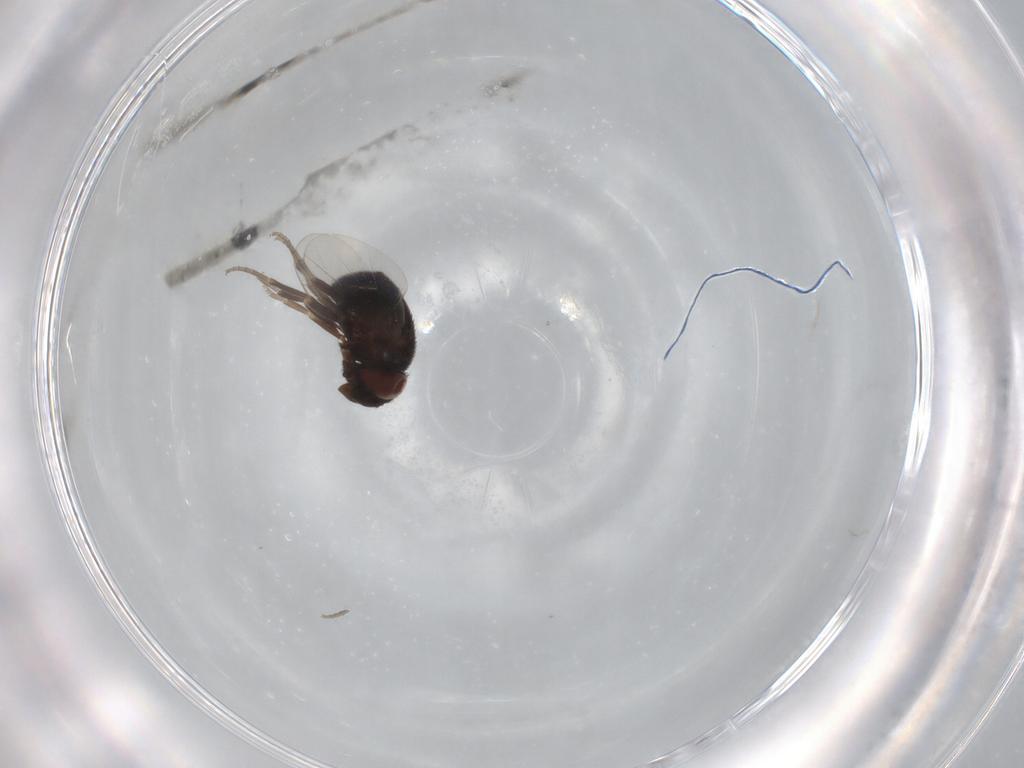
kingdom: Animalia
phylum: Arthropoda
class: Insecta
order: Diptera
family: Cryptochetidae
